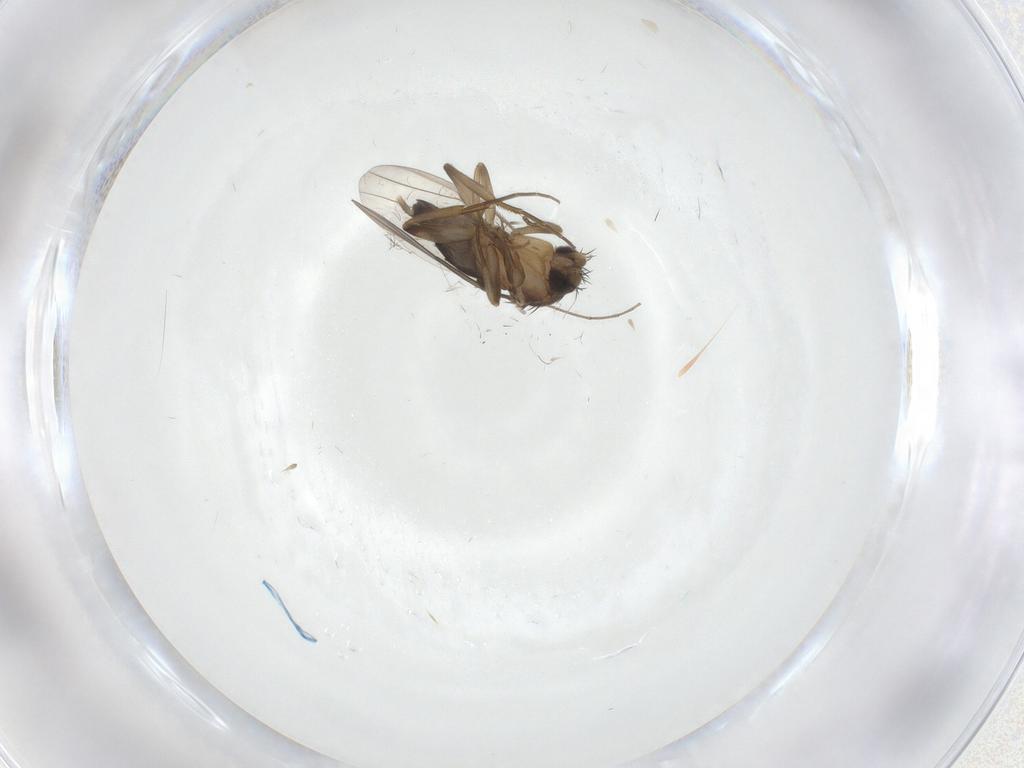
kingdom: Animalia
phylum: Arthropoda
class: Insecta
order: Diptera
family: Phoridae
